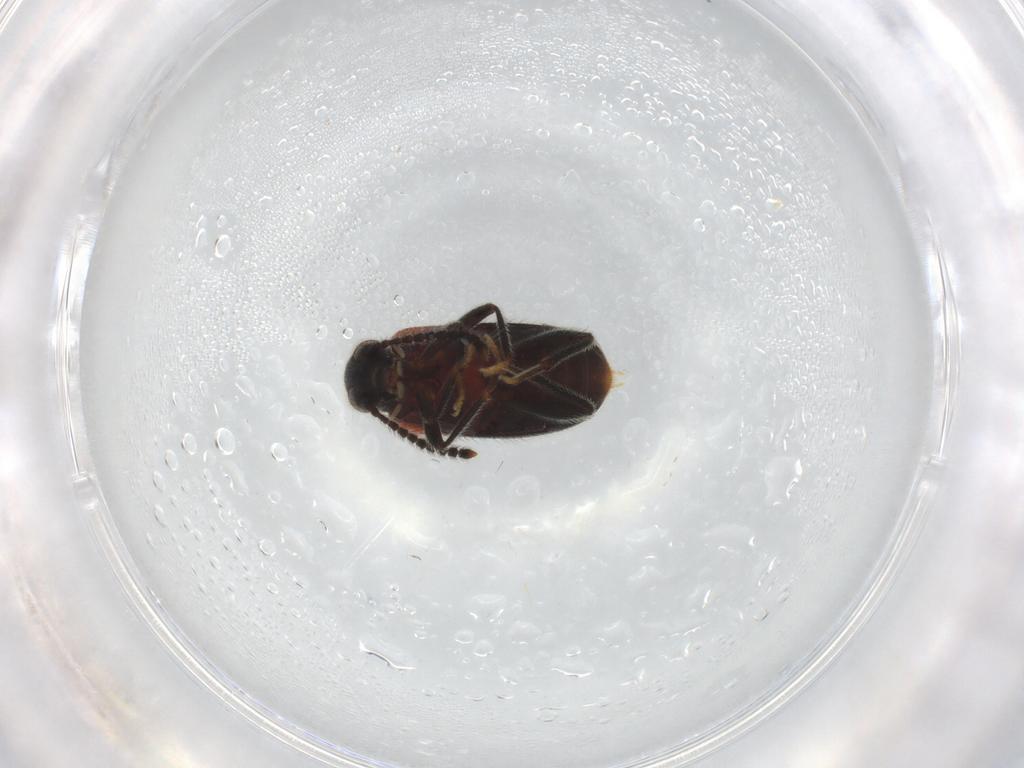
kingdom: Animalia
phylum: Arthropoda
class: Insecta
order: Coleoptera
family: Aderidae
